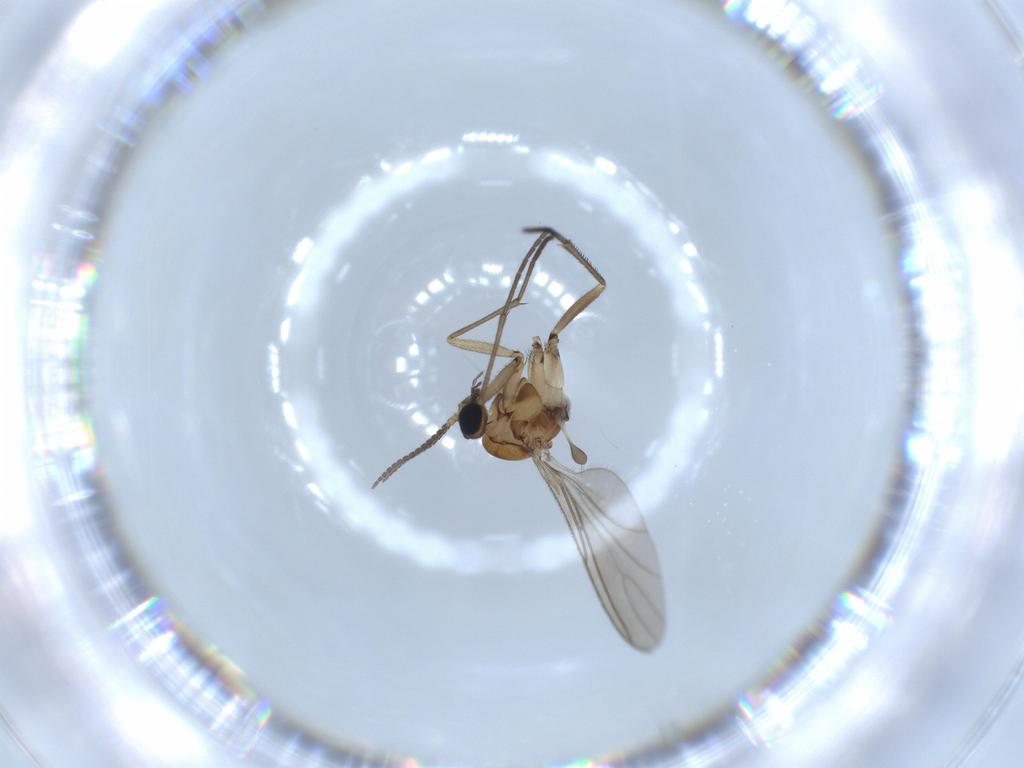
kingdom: Animalia
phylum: Arthropoda
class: Insecta
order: Diptera
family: Sciaridae
